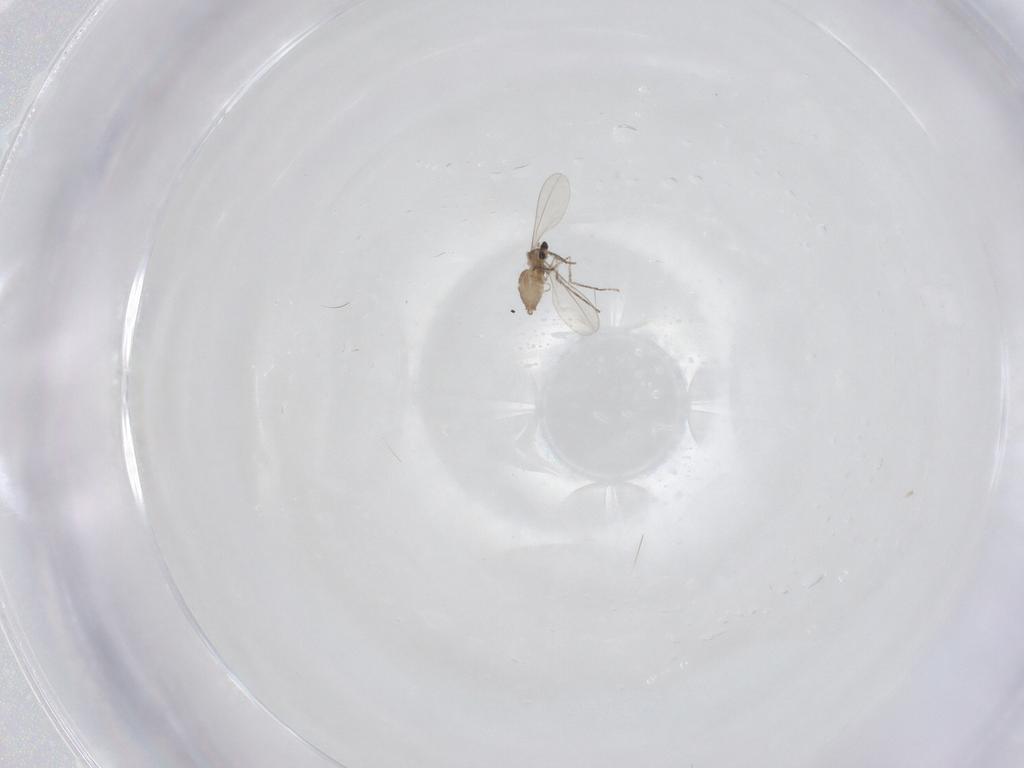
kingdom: Animalia
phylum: Arthropoda
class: Insecta
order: Diptera
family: Cecidomyiidae
